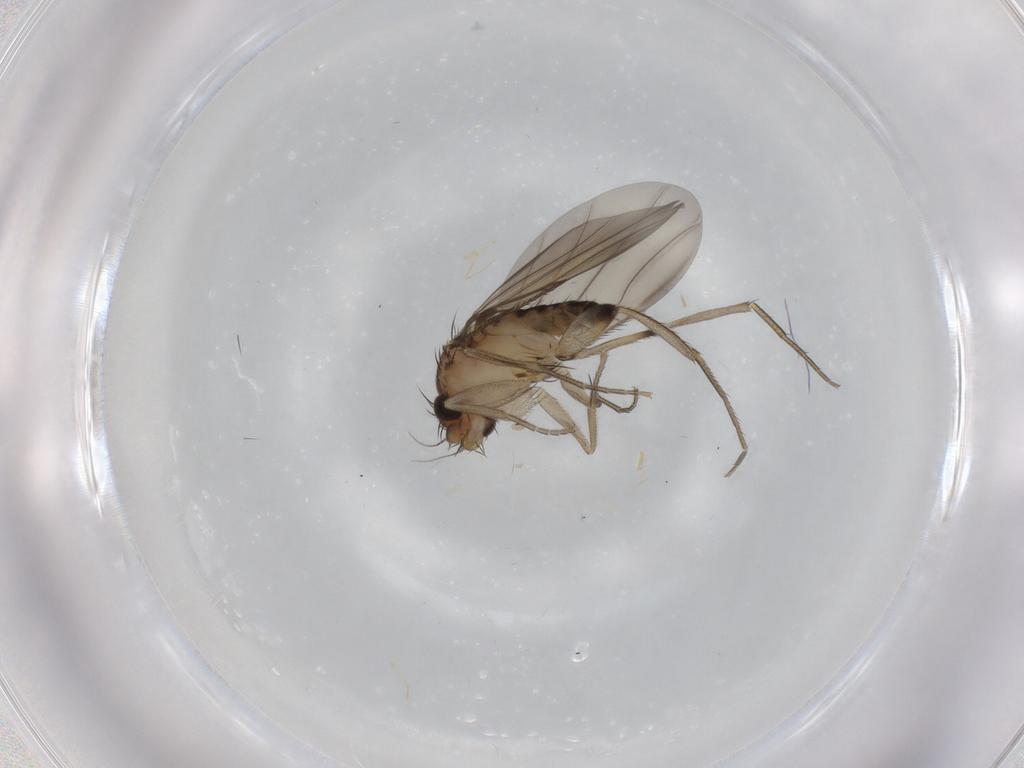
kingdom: Animalia
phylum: Arthropoda
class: Insecta
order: Diptera
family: Phoridae
